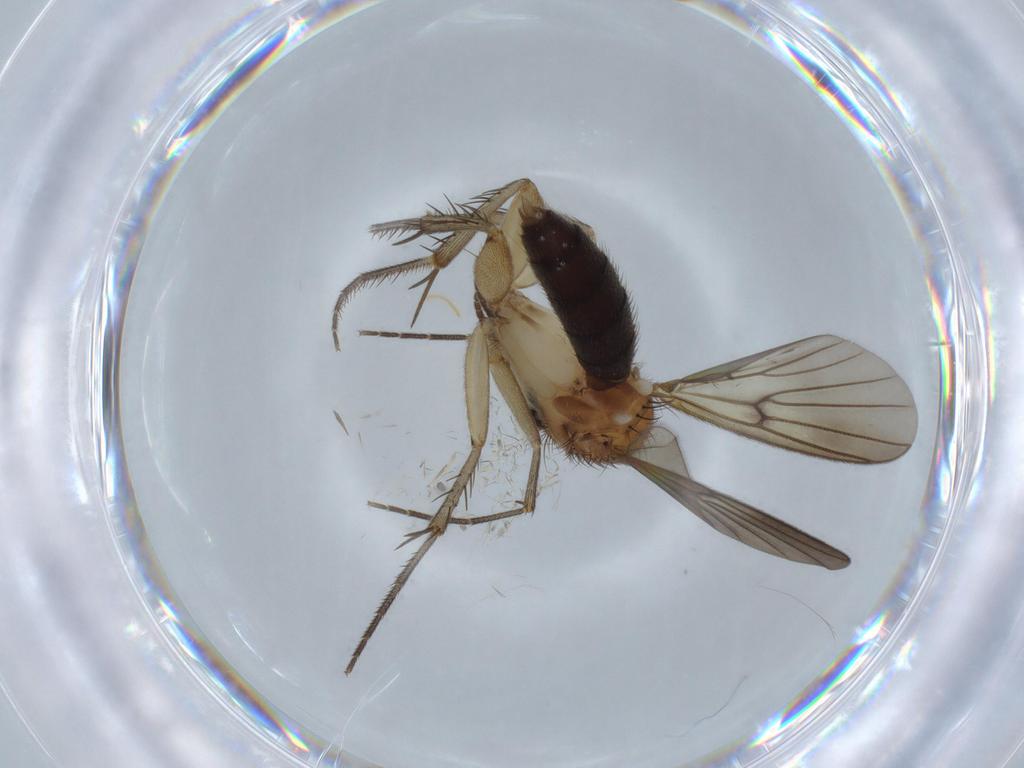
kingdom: Animalia
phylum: Arthropoda
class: Insecta
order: Diptera
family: Mycetophilidae
